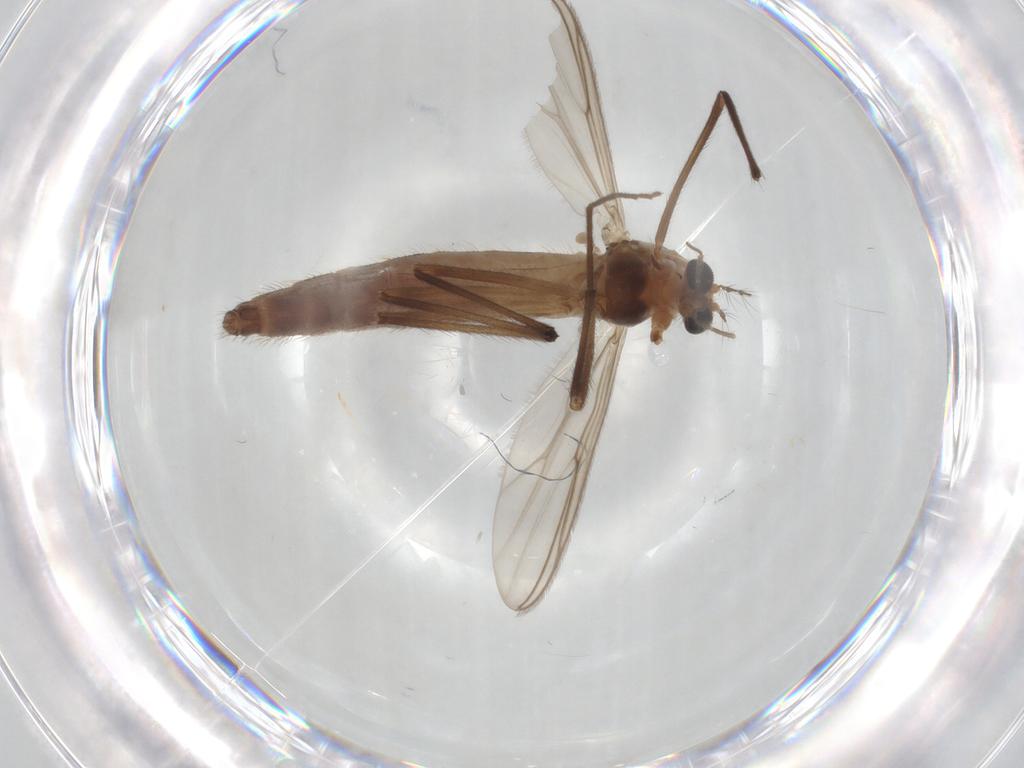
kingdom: Animalia
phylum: Arthropoda
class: Insecta
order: Diptera
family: Chironomidae
